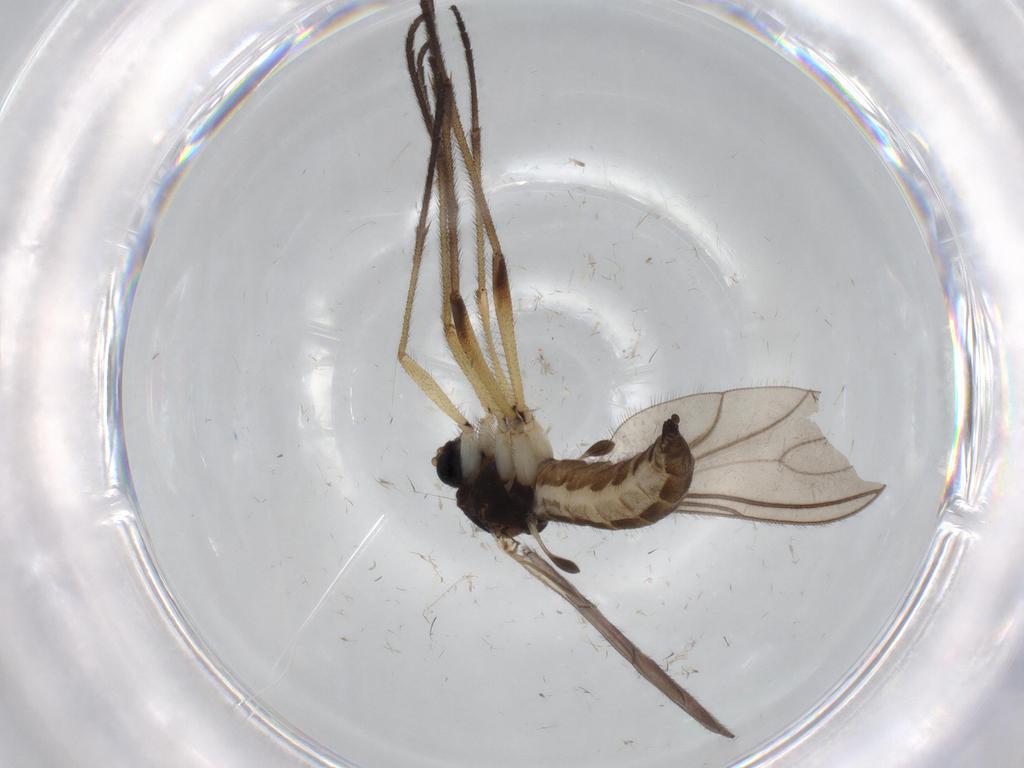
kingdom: Animalia
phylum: Arthropoda
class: Insecta
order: Diptera
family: Sciaridae
